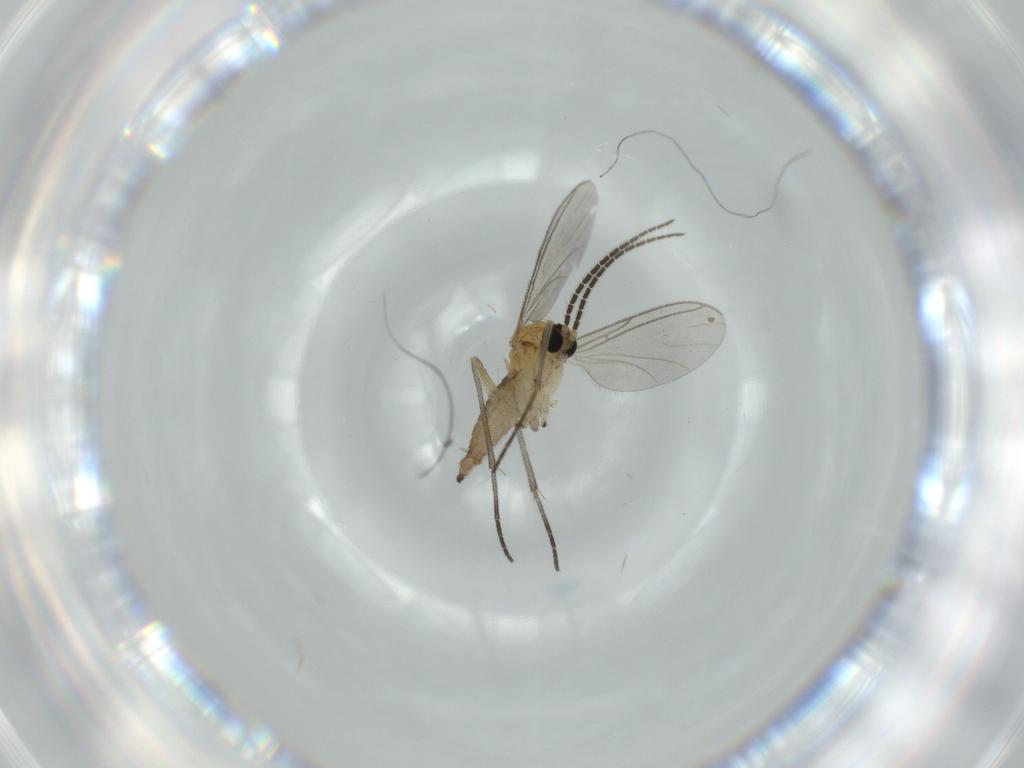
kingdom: Animalia
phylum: Arthropoda
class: Insecta
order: Diptera
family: Sciaridae
